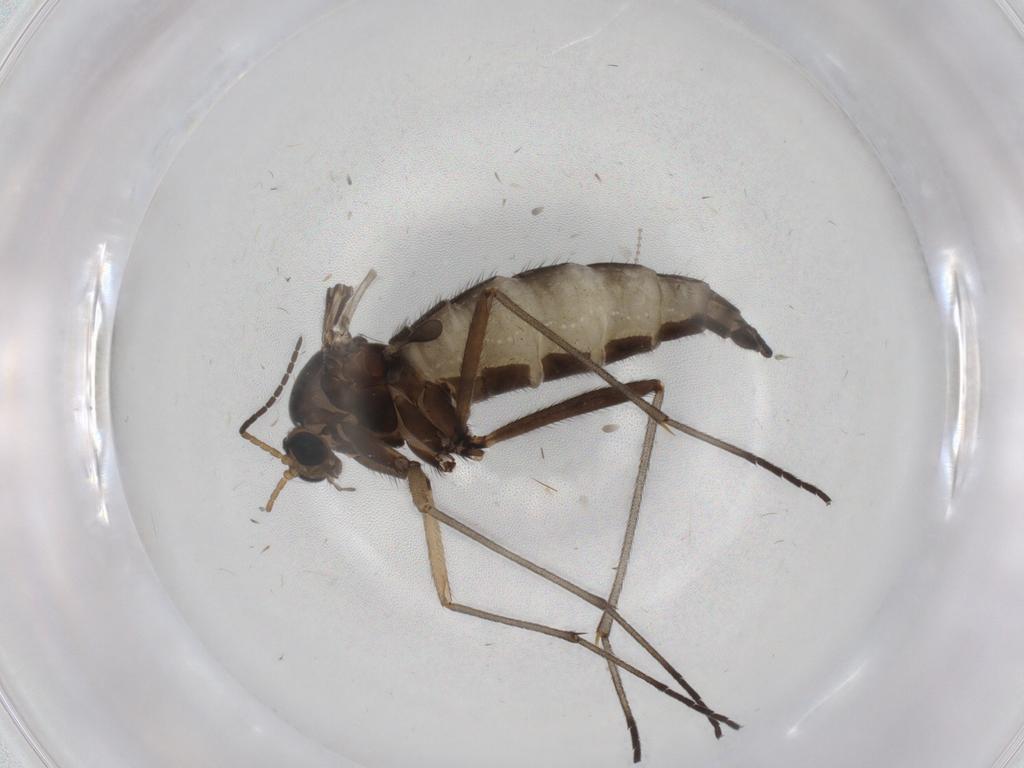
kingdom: Animalia
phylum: Arthropoda
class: Insecta
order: Diptera
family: Sciaridae
